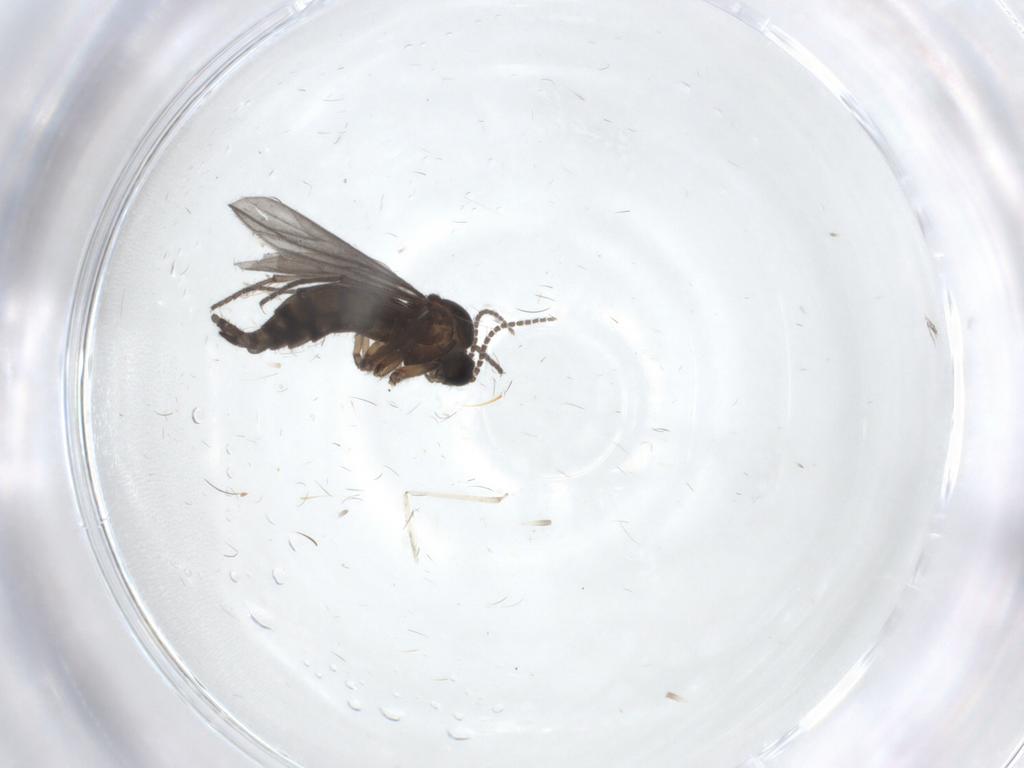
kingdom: Animalia
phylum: Arthropoda
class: Insecta
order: Diptera
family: Sciaridae
